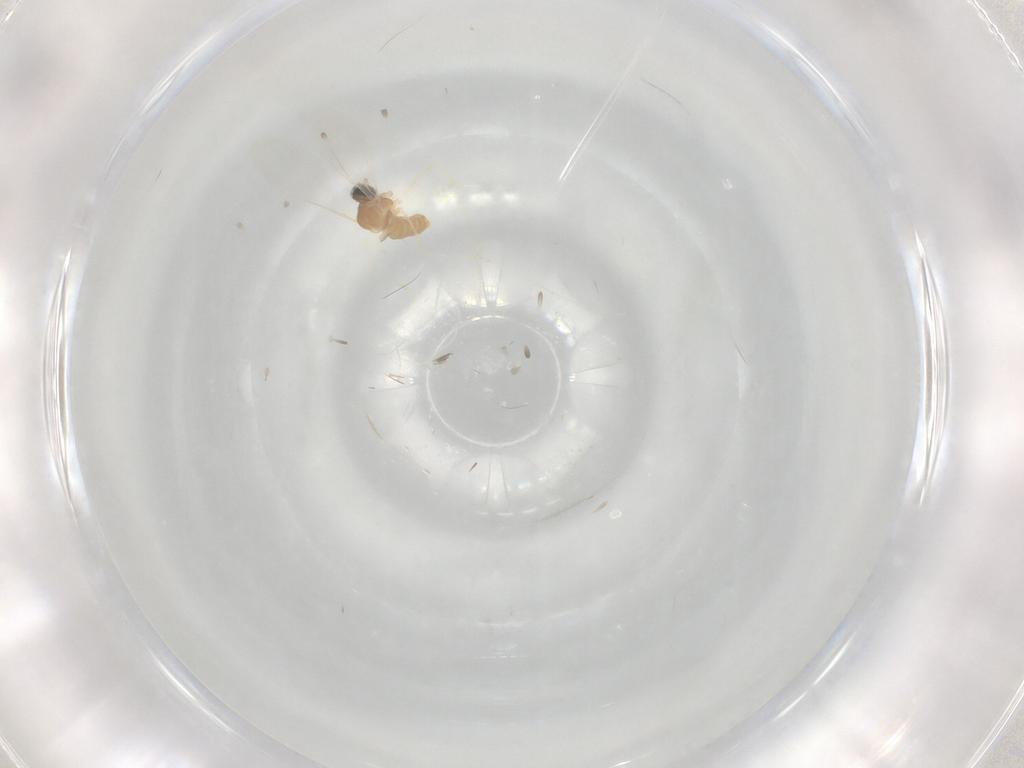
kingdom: Animalia
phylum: Arthropoda
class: Insecta
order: Diptera
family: Cecidomyiidae
